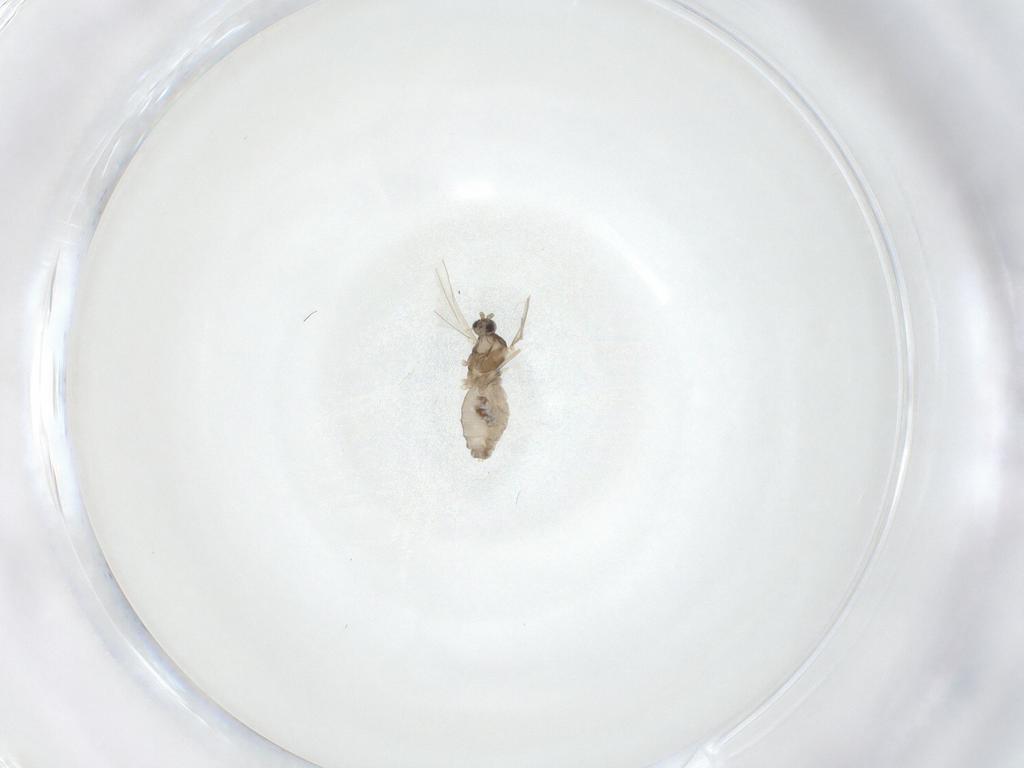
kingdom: Animalia
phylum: Arthropoda
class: Insecta
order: Diptera
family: Cecidomyiidae
